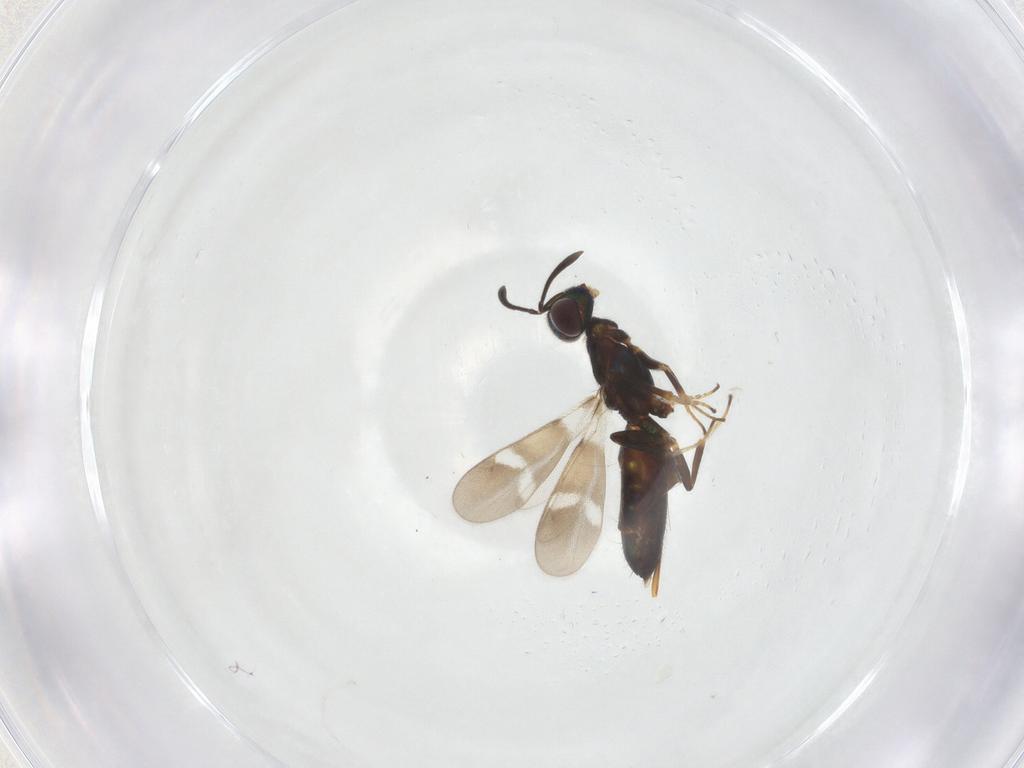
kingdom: Animalia
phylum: Arthropoda
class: Insecta
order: Hymenoptera
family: Eupelmidae
